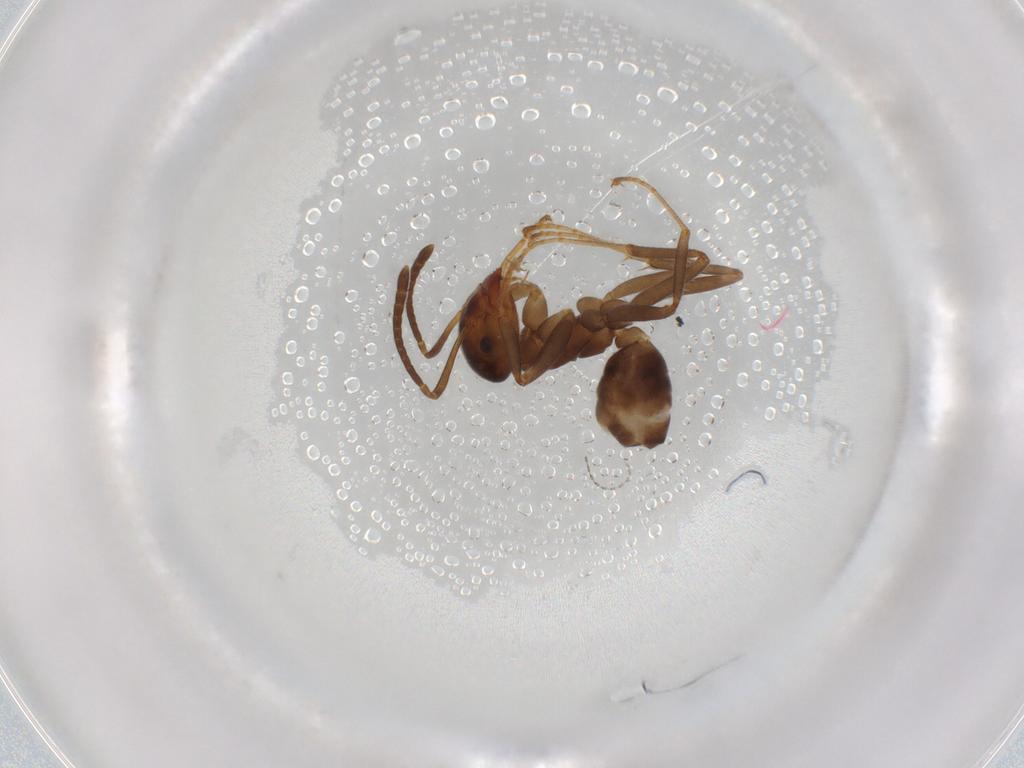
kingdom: Animalia
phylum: Arthropoda
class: Insecta
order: Hymenoptera
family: Formicidae
